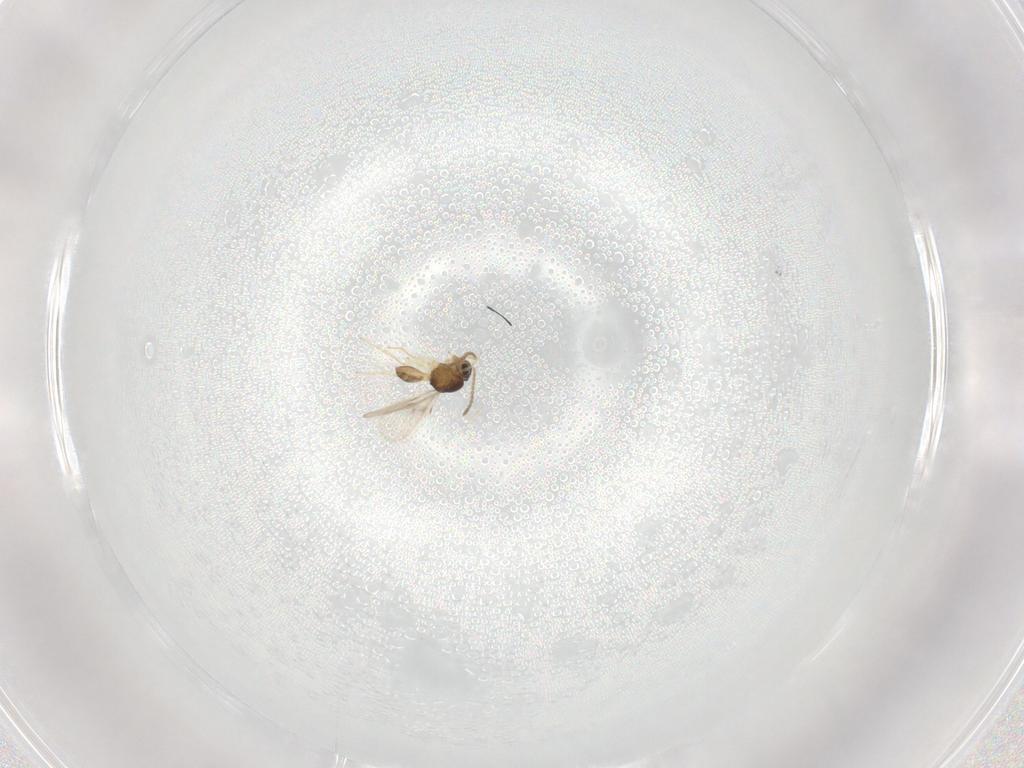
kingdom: Animalia
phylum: Arthropoda
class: Insecta
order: Hymenoptera
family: Scelionidae
